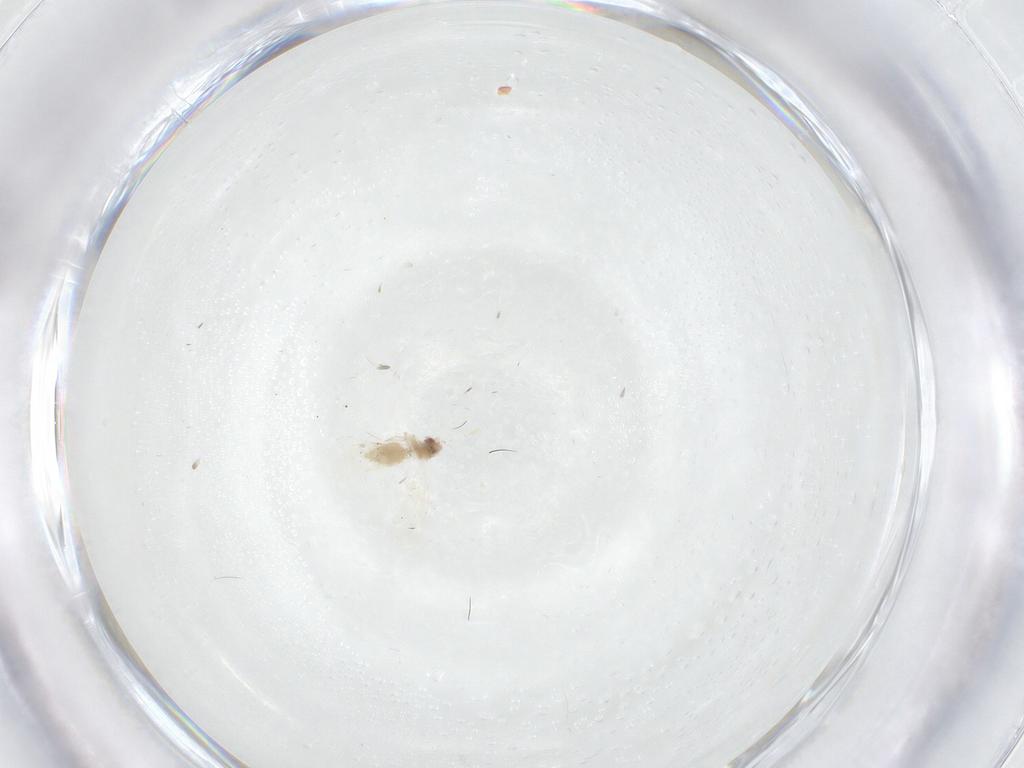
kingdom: Animalia
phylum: Arthropoda
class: Insecta
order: Hemiptera
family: Aleyrodidae
